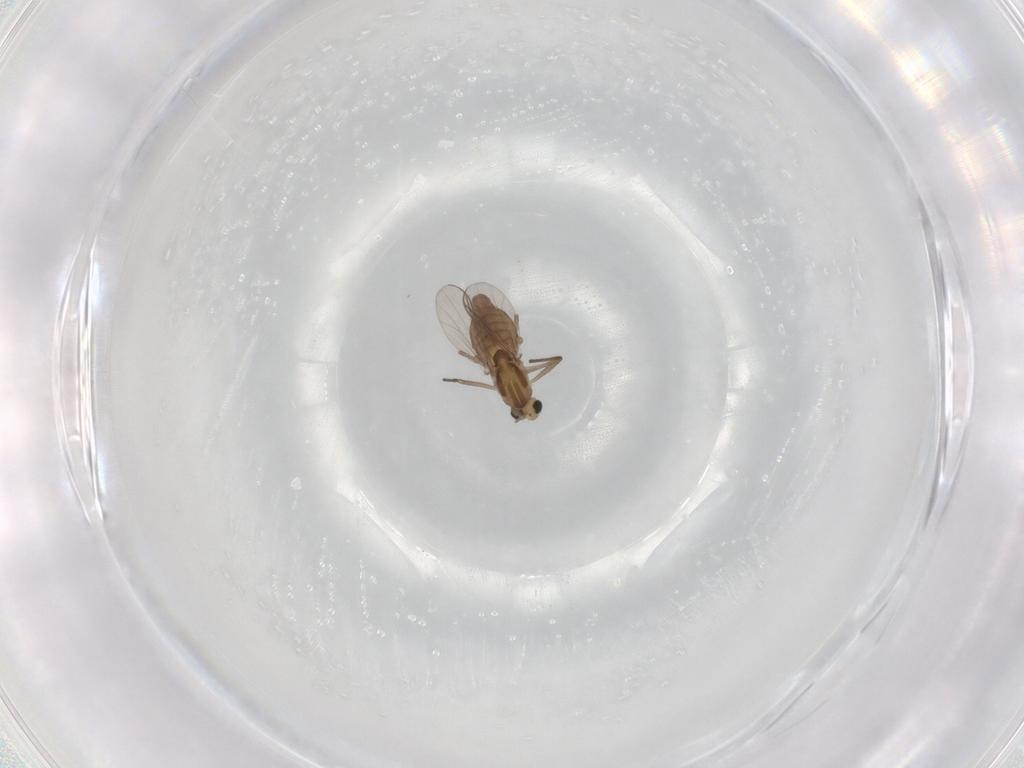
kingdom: Animalia
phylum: Arthropoda
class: Insecta
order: Diptera
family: Chironomidae
